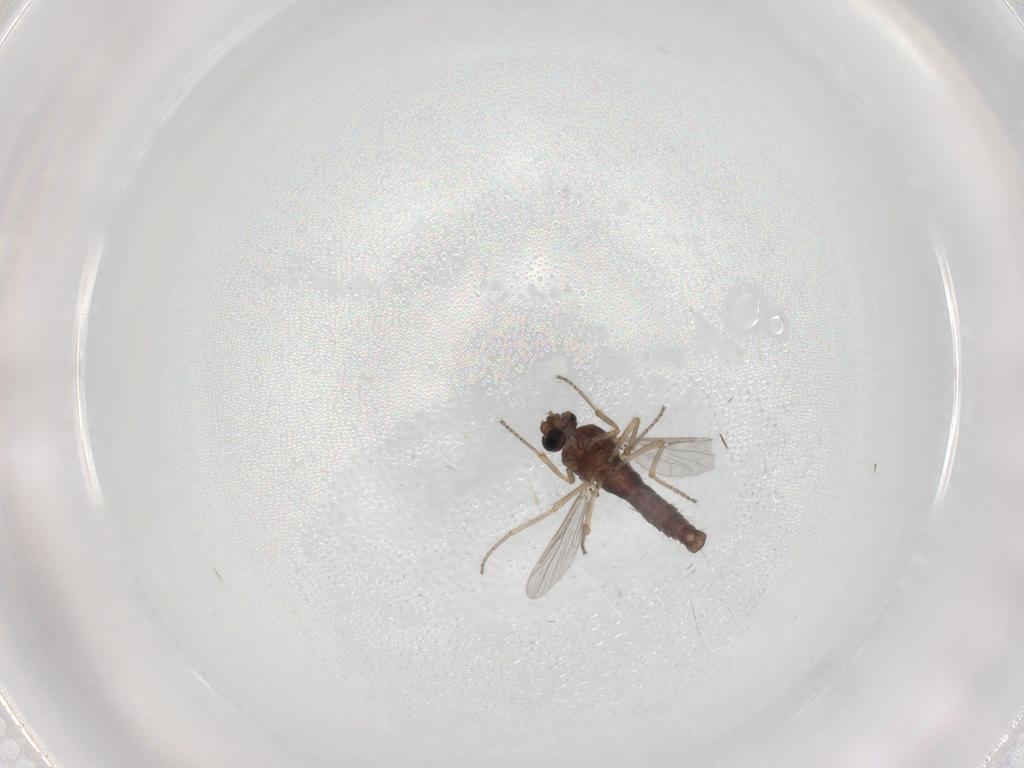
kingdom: Animalia
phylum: Arthropoda
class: Insecta
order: Diptera
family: Ceratopogonidae
